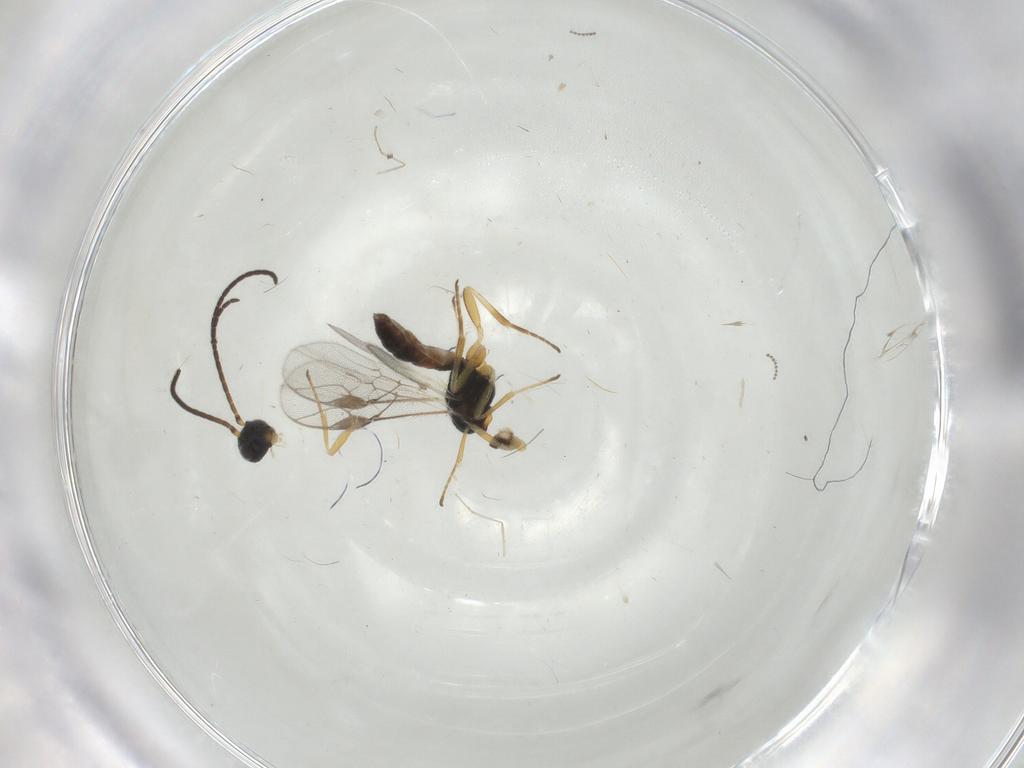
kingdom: Animalia
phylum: Arthropoda
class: Insecta
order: Hymenoptera
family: Braconidae
